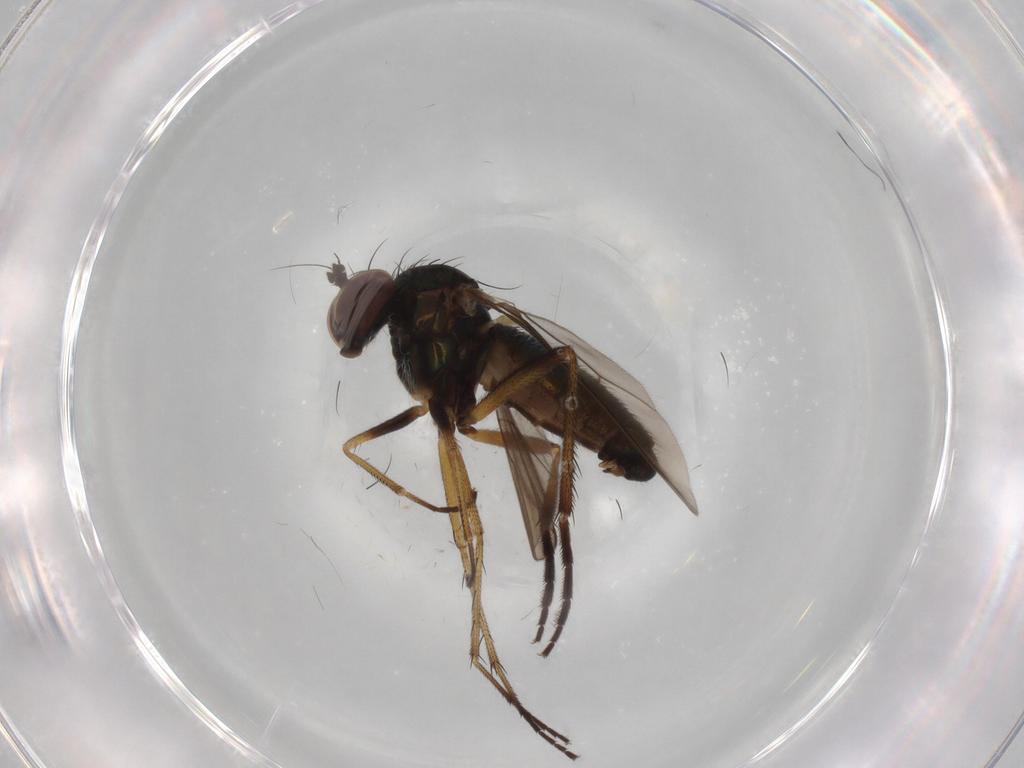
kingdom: Animalia
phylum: Arthropoda
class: Insecta
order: Diptera
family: Dolichopodidae
